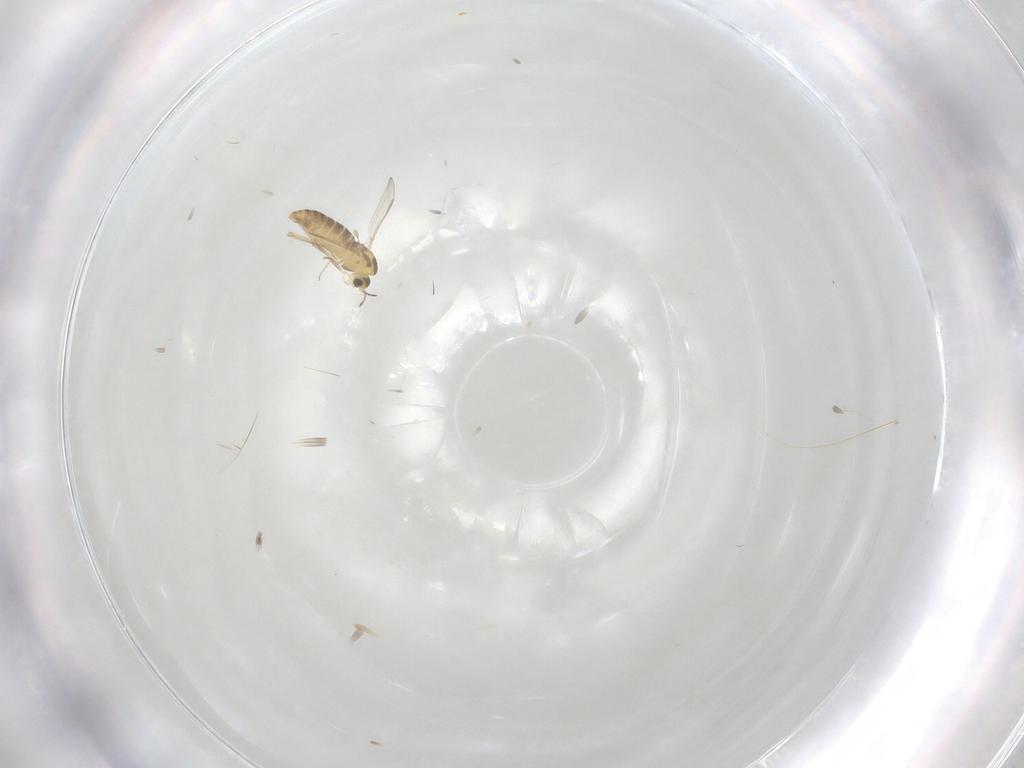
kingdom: Animalia
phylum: Arthropoda
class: Insecta
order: Diptera
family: Chironomidae
